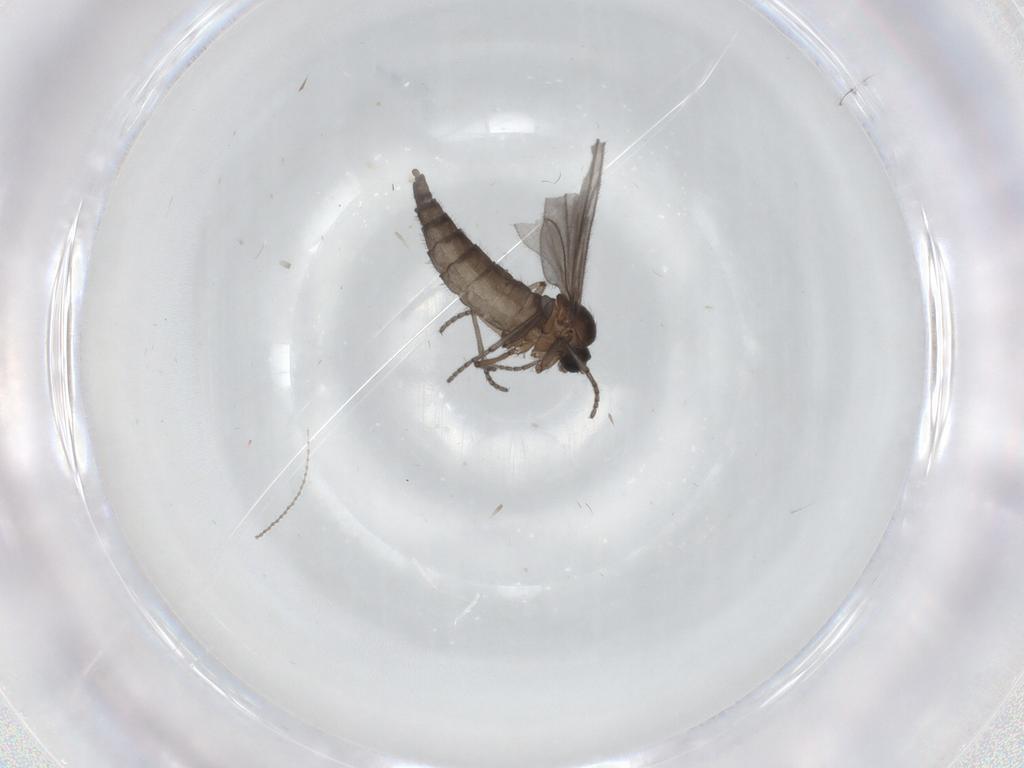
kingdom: Animalia
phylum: Arthropoda
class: Insecta
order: Diptera
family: Sciaridae
